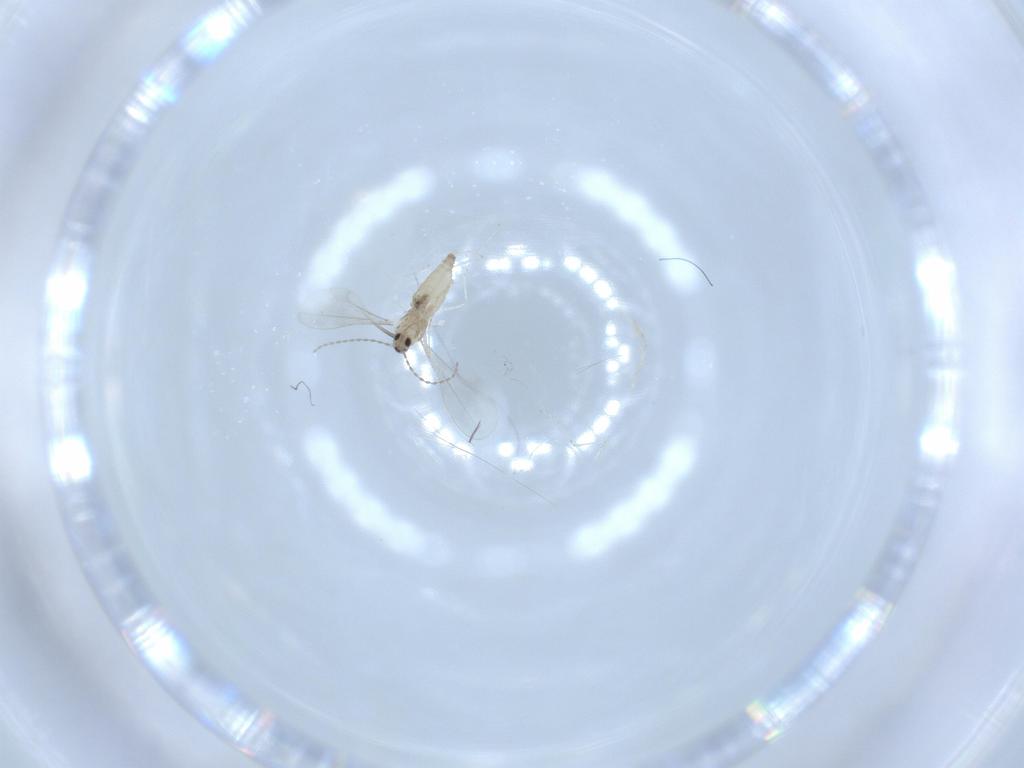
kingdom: Animalia
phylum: Arthropoda
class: Insecta
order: Diptera
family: Cecidomyiidae
